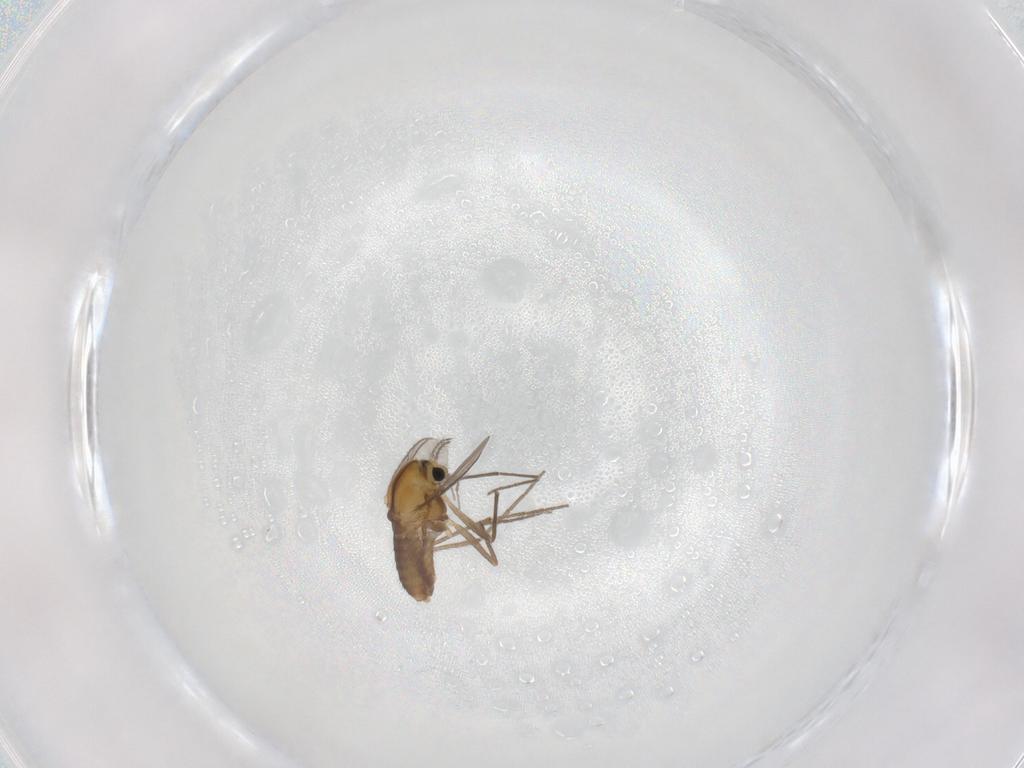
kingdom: Animalia
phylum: Arthropoda
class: Insecta
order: Diptera
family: Chironomidae
